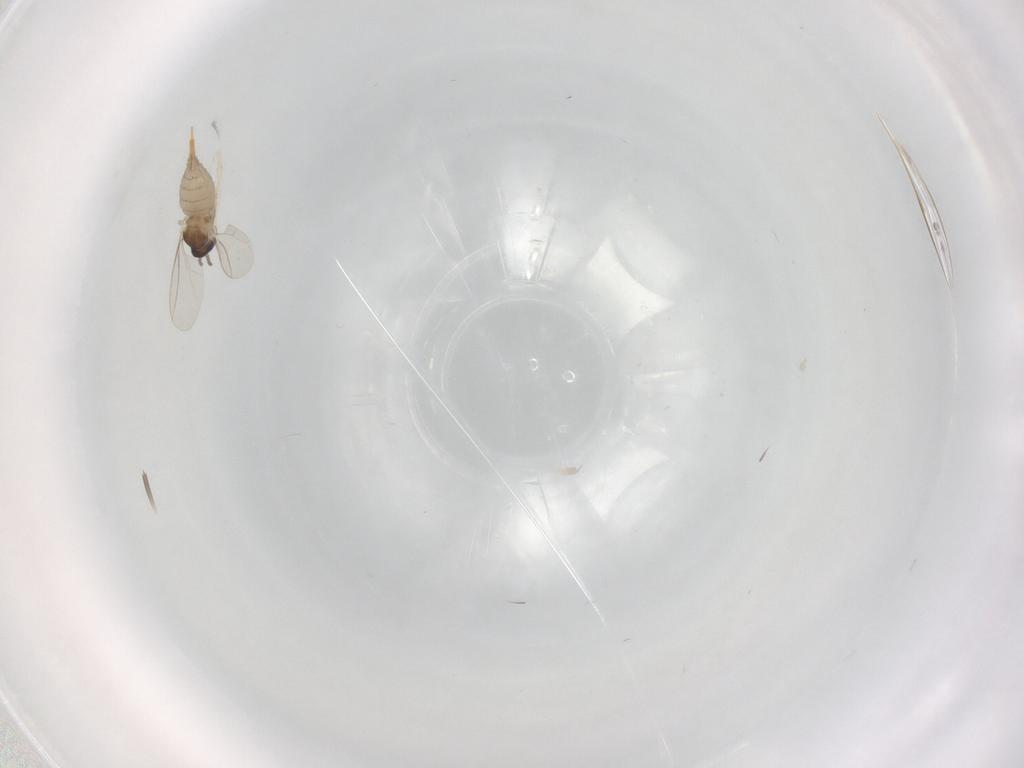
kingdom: Animalia
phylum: Arthropoda
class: Insecta
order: Diptera
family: Cecidomyiidae
